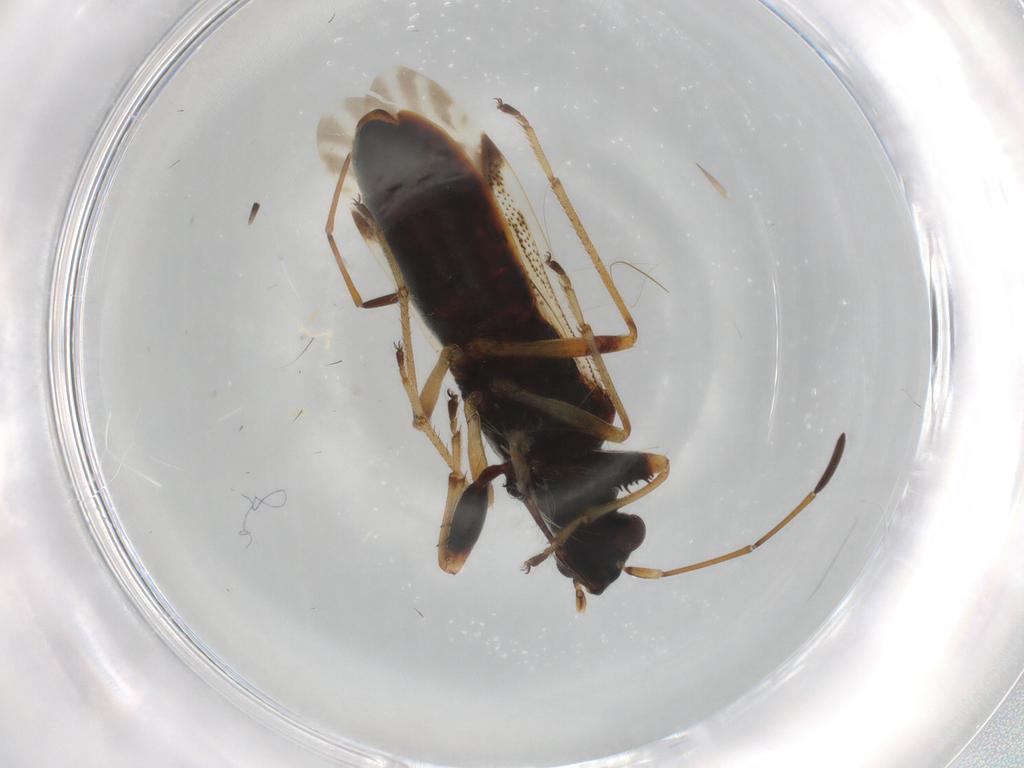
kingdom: Animalia
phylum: Arthropoda
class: Insecta
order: Hemiptera
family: Rhyparochromidae
